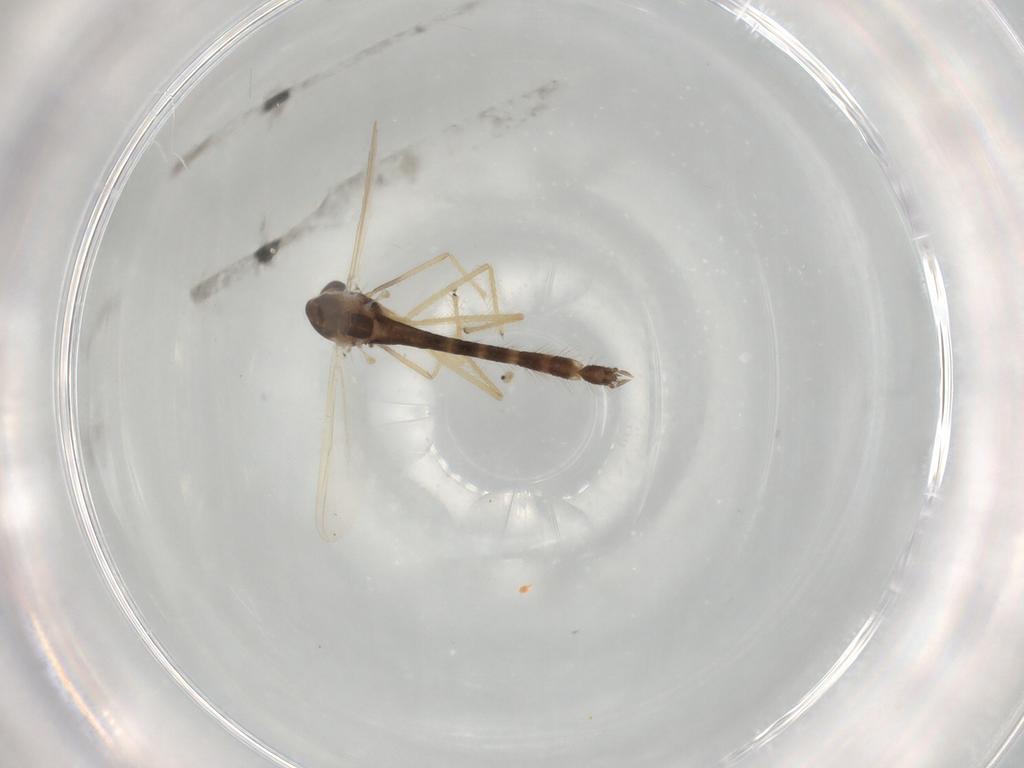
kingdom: Animalia
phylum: Arthropoda
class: Insecta
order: Diptera
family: Chironomidae
